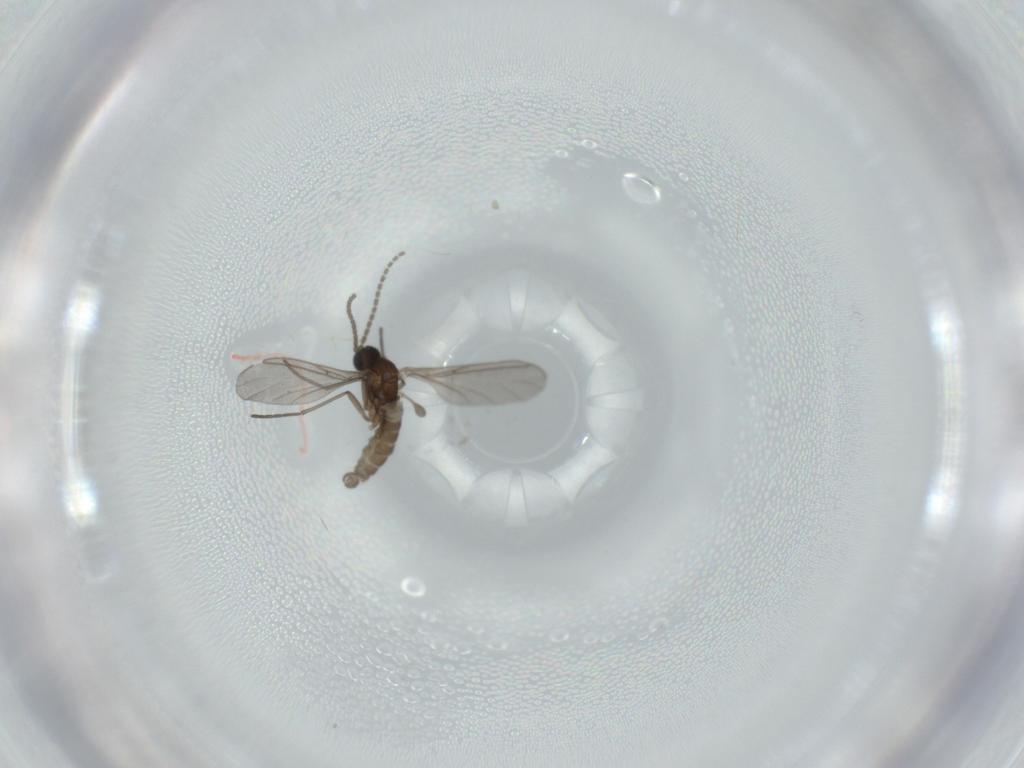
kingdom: Animalia
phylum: Arthropoda
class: Insecta
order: Diptera
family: Sciaridae
